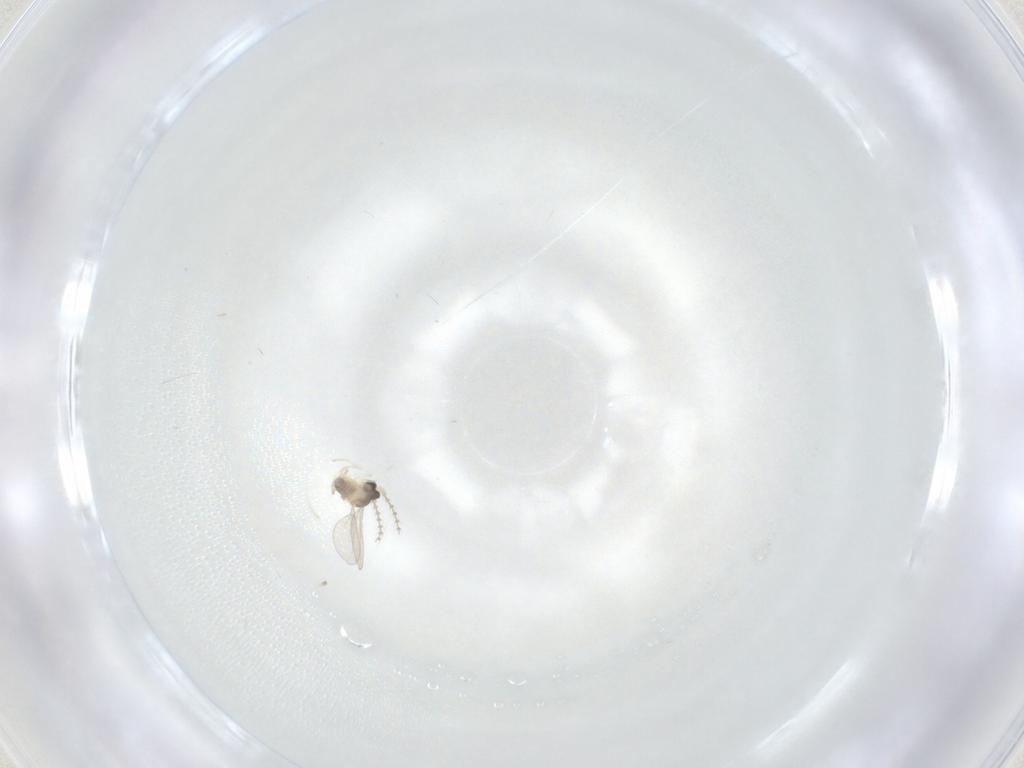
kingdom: Animalia
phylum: Arthropoda
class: Insecta
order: Diptera
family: Cecidomyiidae
